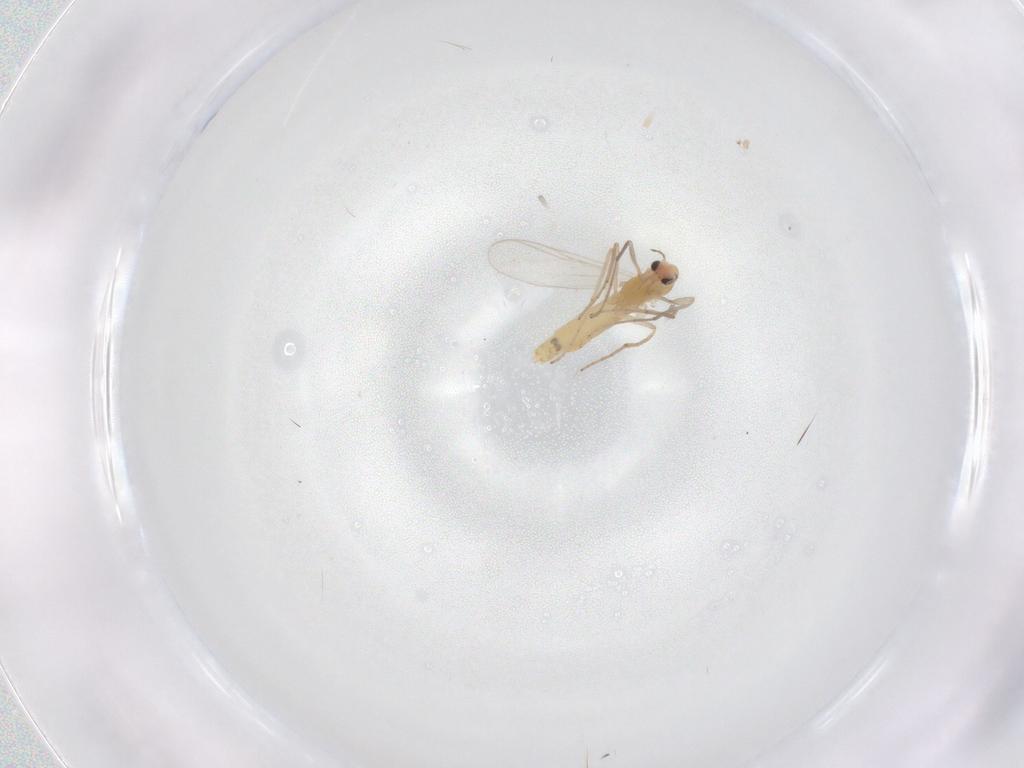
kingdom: Animalia
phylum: Arthropoda
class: Insecta
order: Diptera
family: Chironomidae
